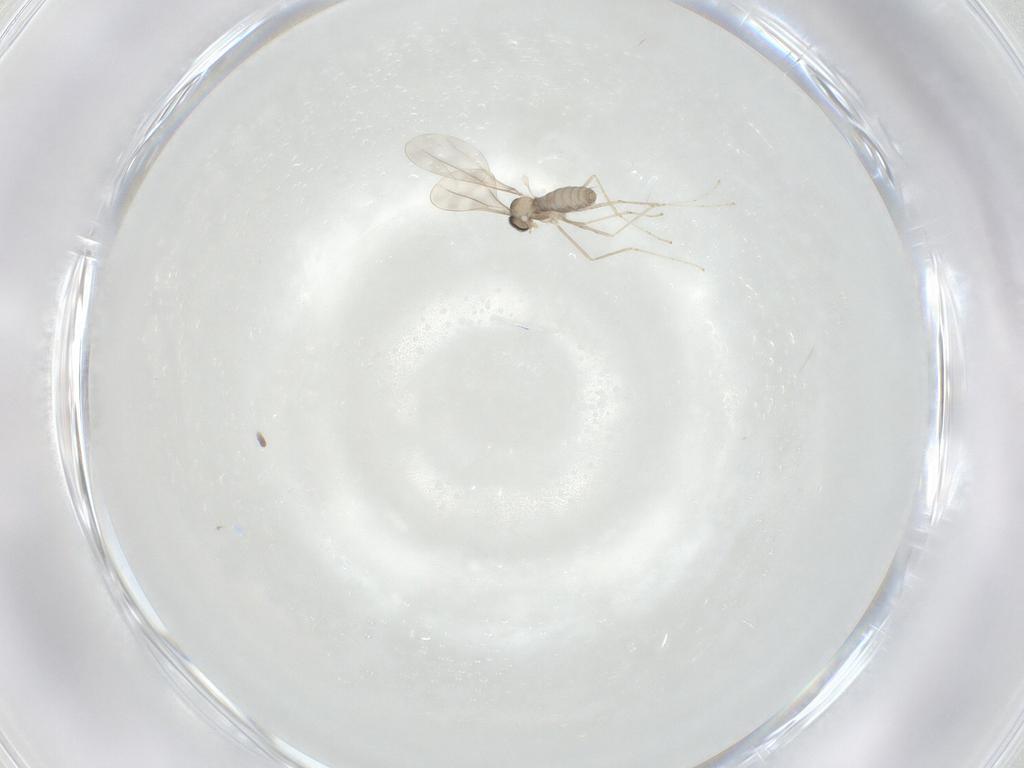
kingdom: Animalia
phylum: Arthropoda
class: Insecta
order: Diptera
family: Cecidomyiidae
